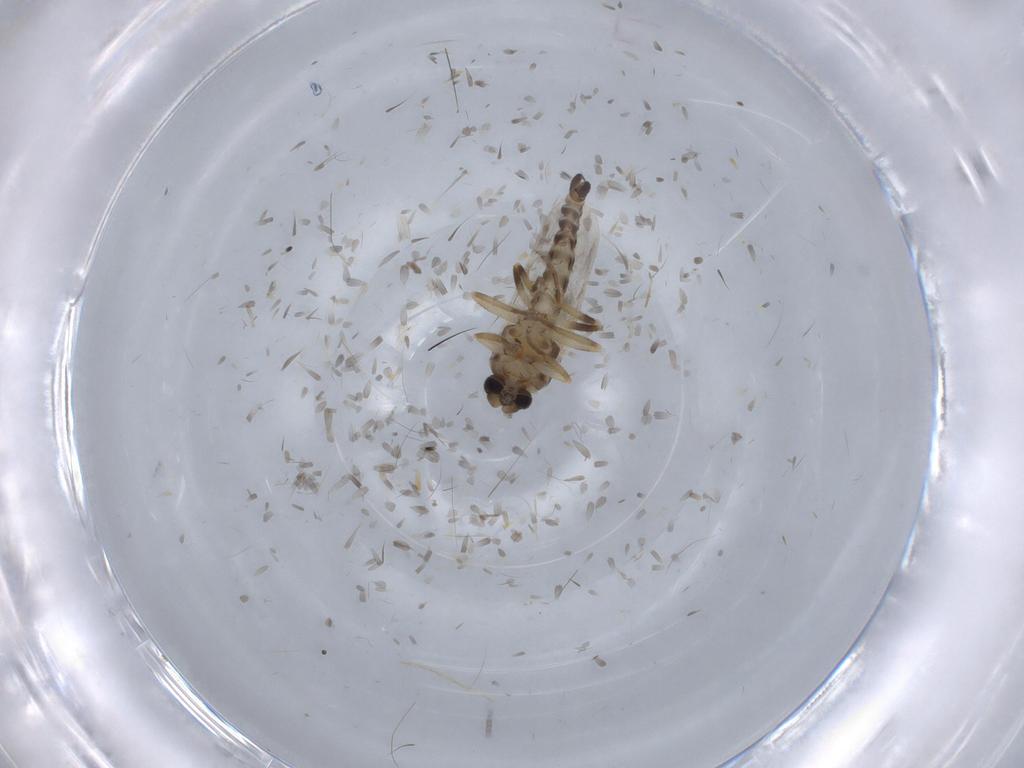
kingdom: Animalia
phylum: Arthropoda
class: Insecta
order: Diptera
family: Ceratopogonidae
